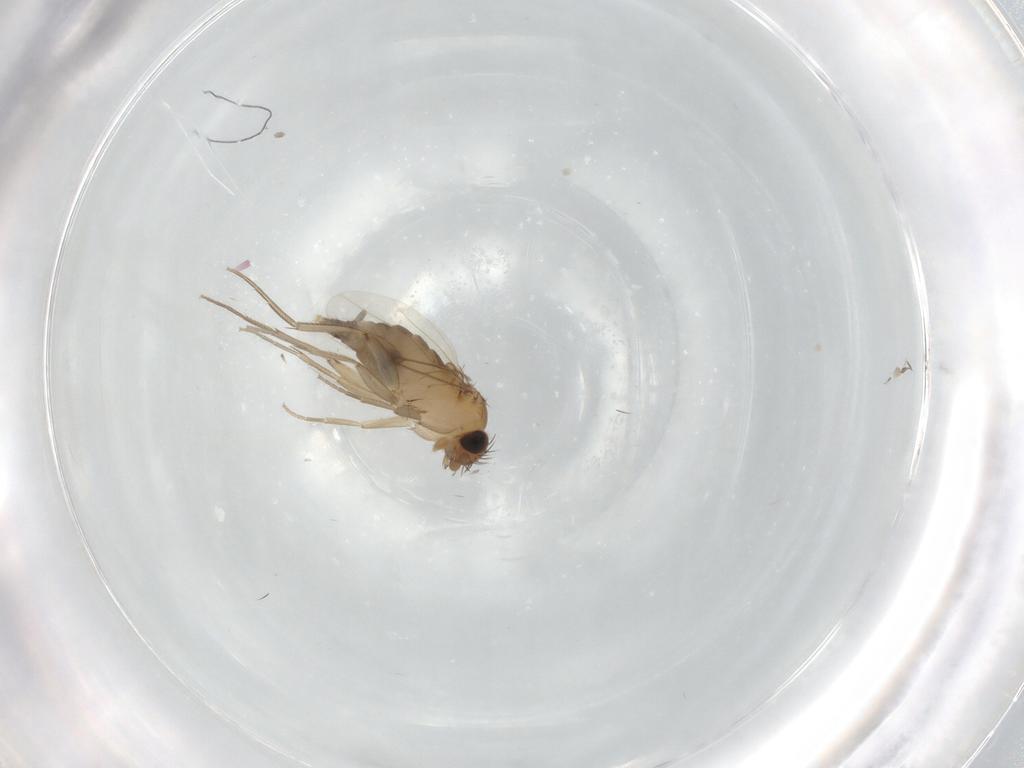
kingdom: Animalia
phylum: Arthropoda
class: Insecta
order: Diptera
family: Phoridae
